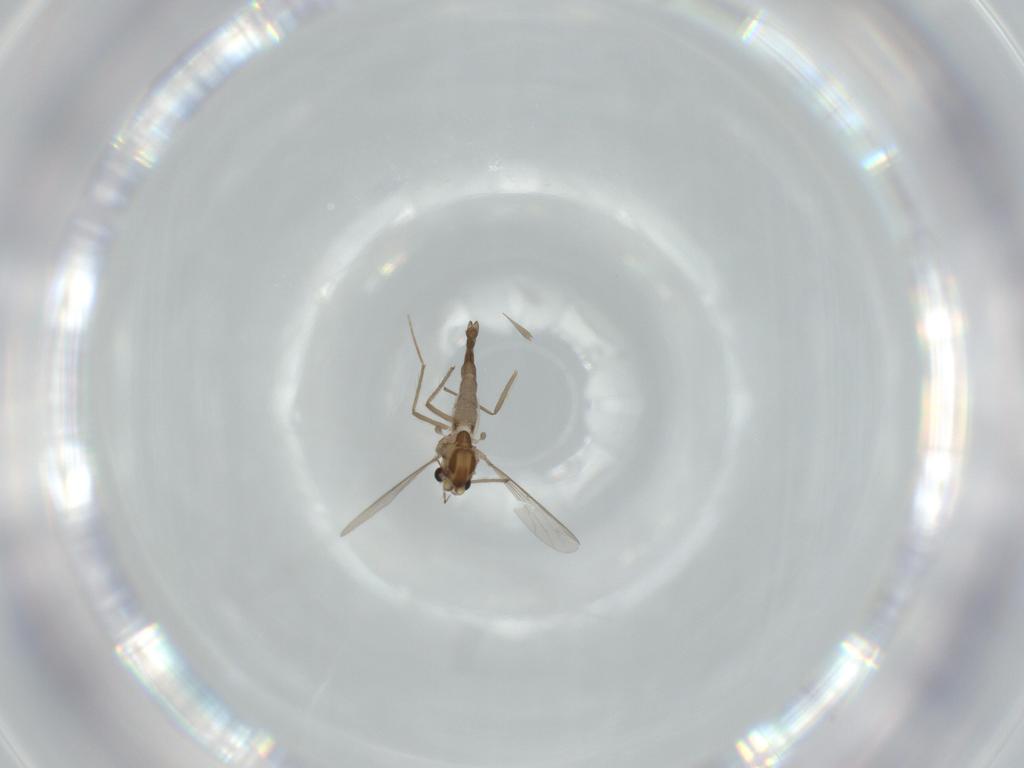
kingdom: Animalia
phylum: Arthropoda
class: Insecta
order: Diptera
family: Chironomidae
